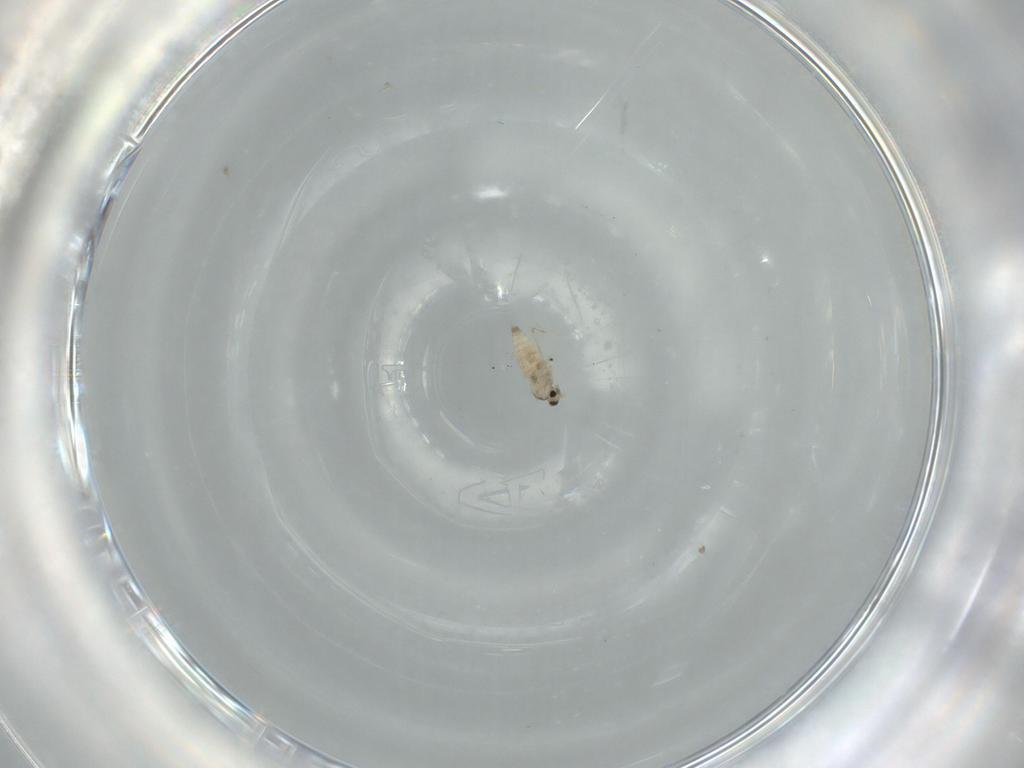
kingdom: Animalia
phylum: Arthropoda
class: Insecta
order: Diptera
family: Cecidomyiidae
